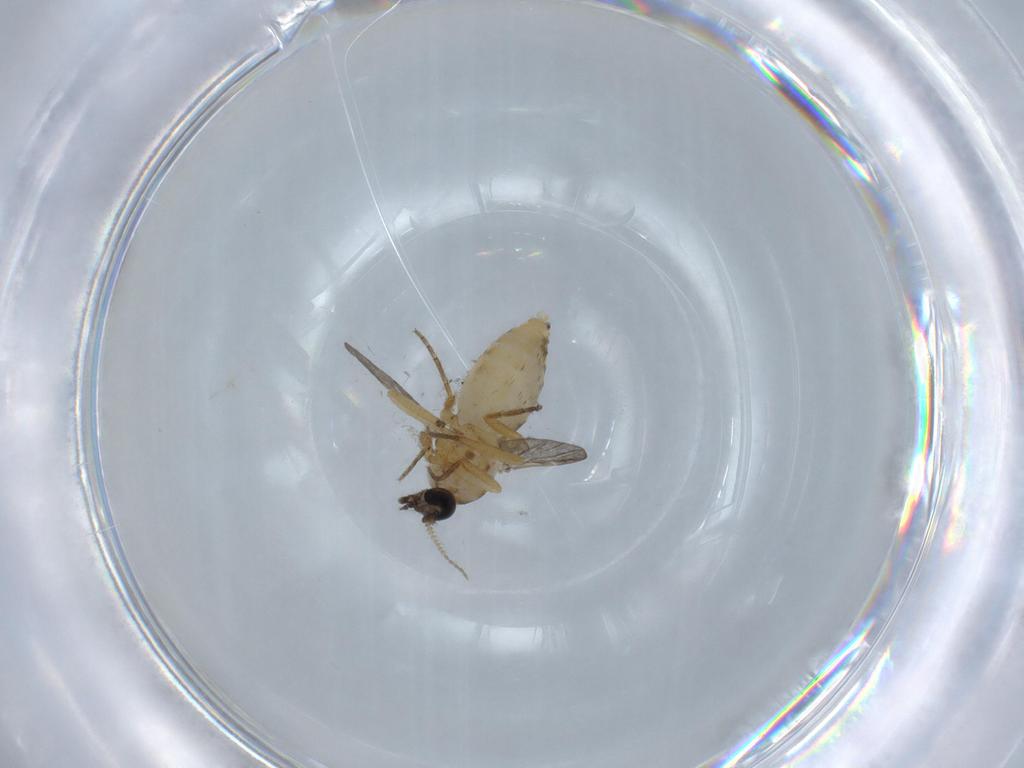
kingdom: Animalia
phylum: Arthropoda
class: Insecta
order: Diptera
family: Ceratopogonidae
